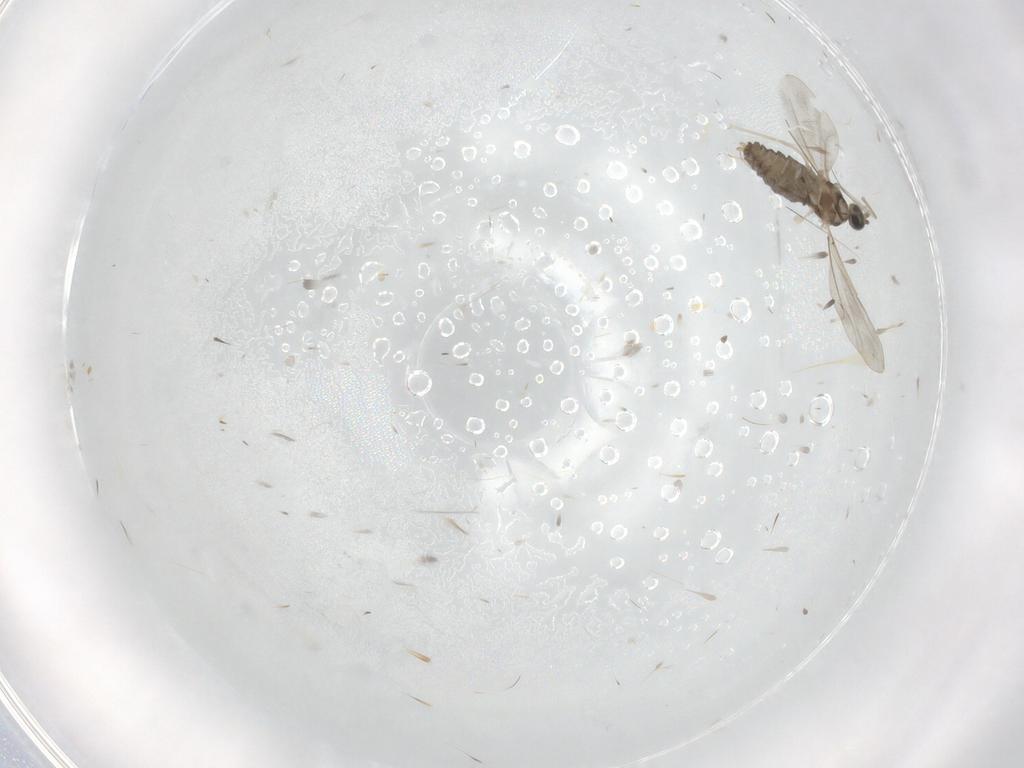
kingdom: Animalia
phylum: Arthropoda
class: Insecta
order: Diptera
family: Cecidomyiidae
